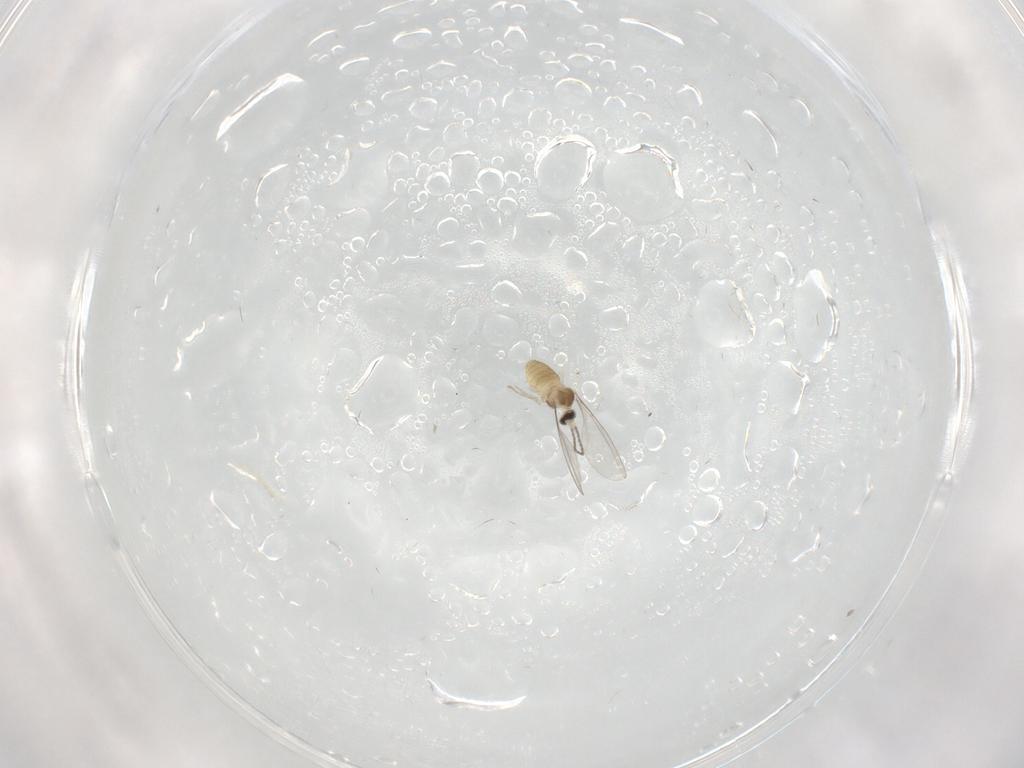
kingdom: Animalia
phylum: Arthropoda
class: Insecta
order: Diptera
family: Chironomidae
